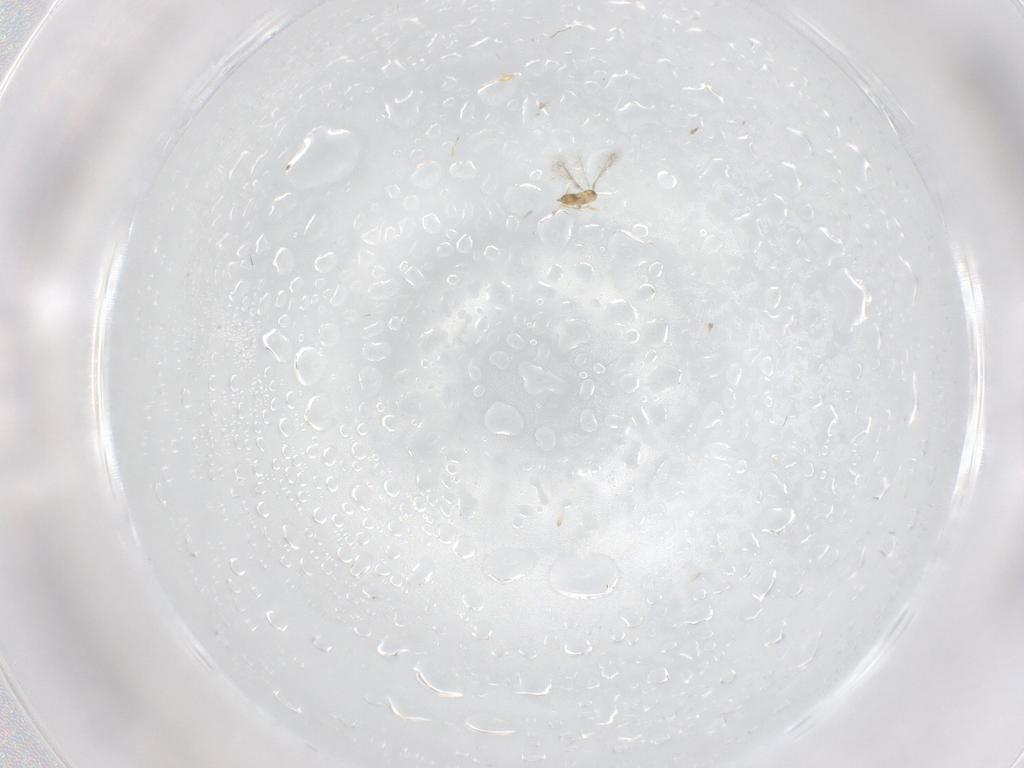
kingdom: Animalia
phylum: Arthropoda
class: Insecta
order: Hymenoptera
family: Mymaridae
